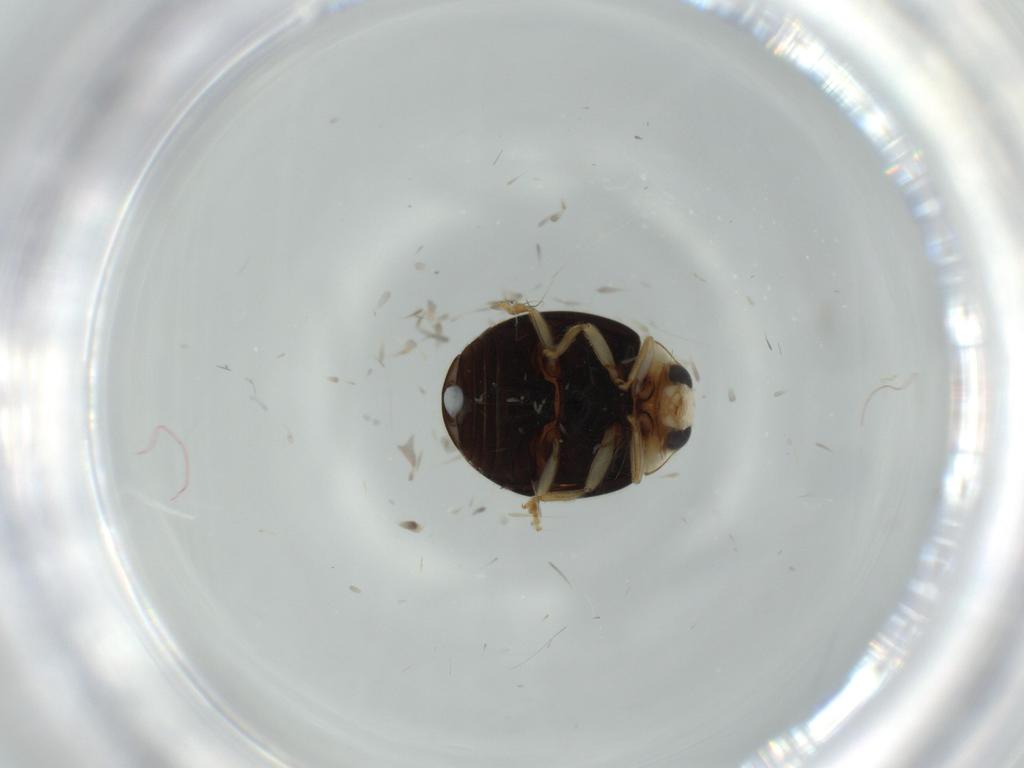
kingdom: Animalia
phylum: Arthropoda
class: Insecta
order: Coleoptera
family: Coccinellidae
